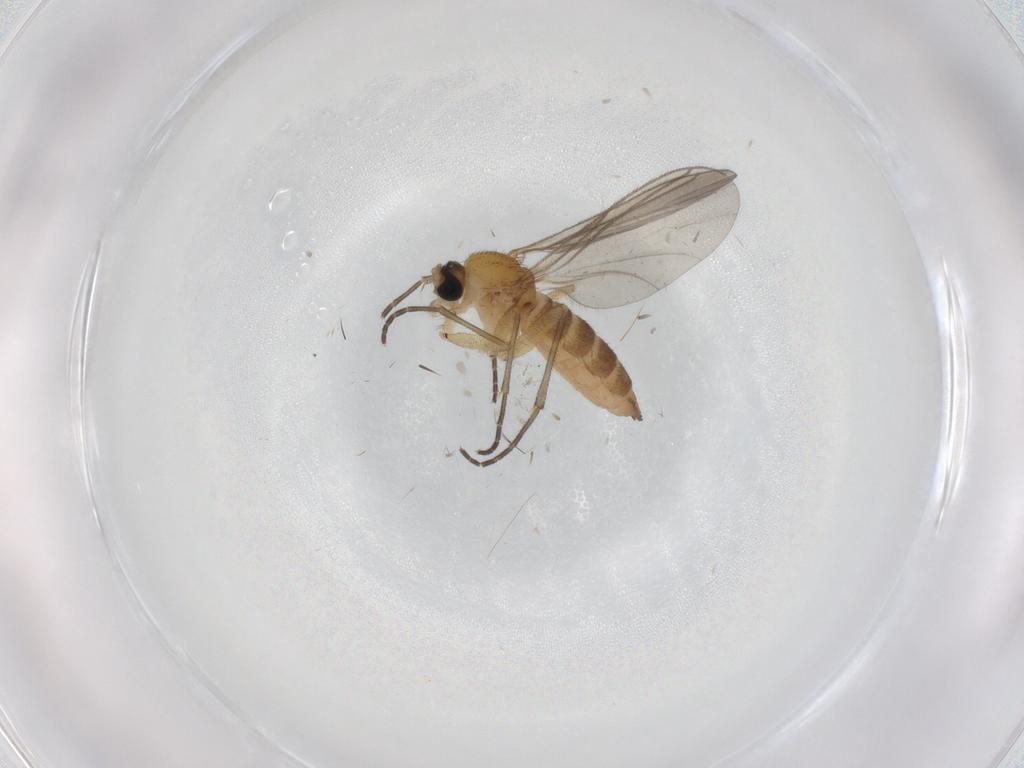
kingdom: Animalia
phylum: Arthropoda
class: Insecta
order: Diptera
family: Sciaridae
